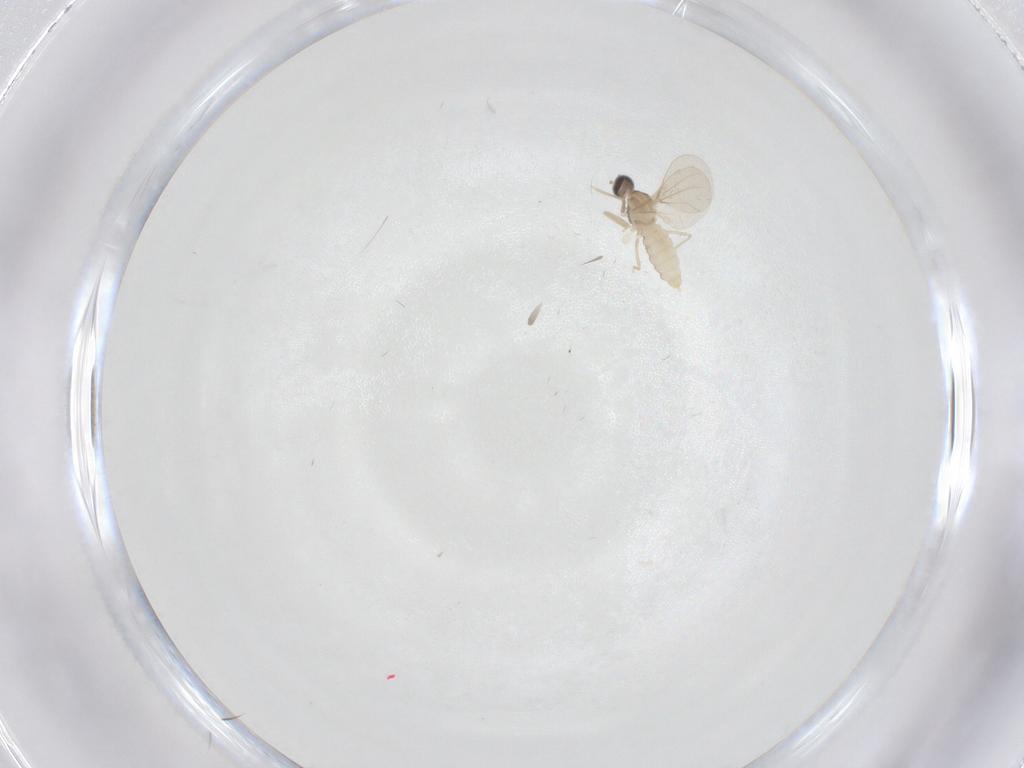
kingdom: Animalia
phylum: Arthropoda
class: Insecta
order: Diptera
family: Cecidomyiidae
